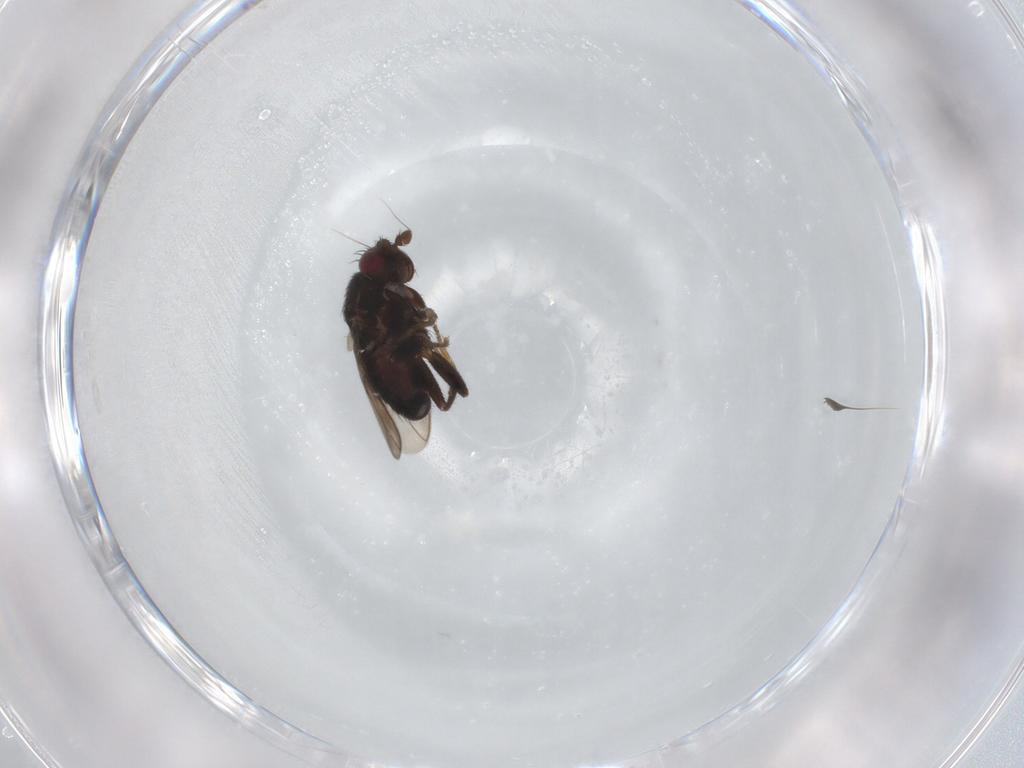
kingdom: Animalia
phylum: Arthropoda
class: Insecta
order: Diptera
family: Sphaeroceridae
